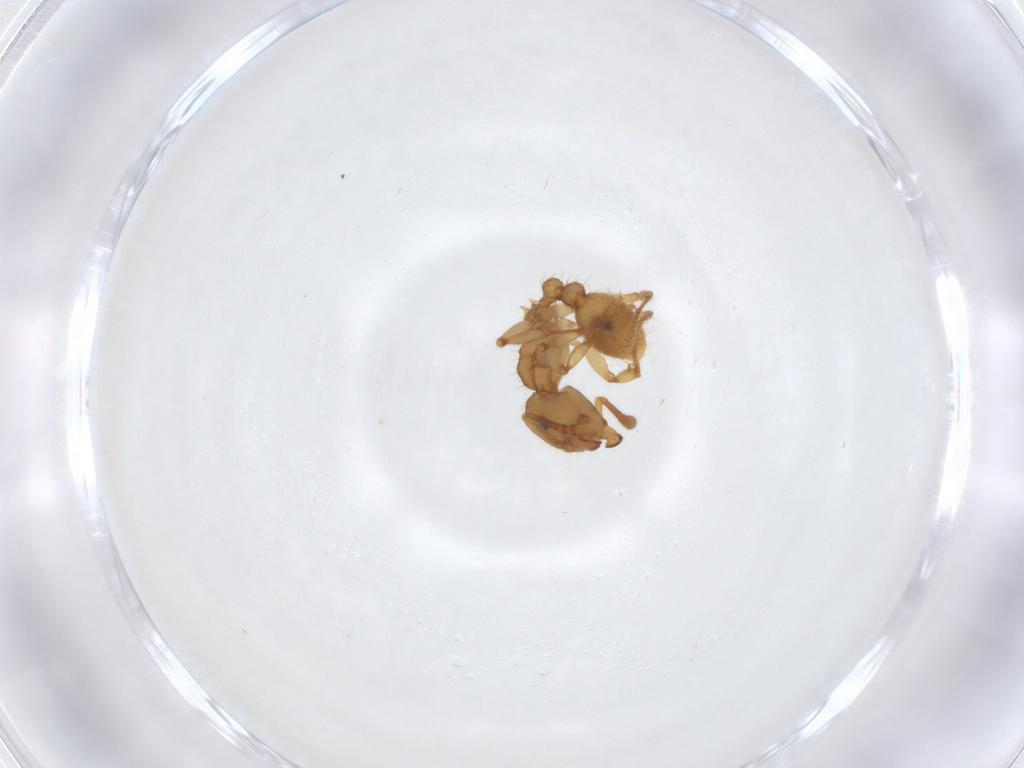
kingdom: Animalia
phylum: Arthropoda
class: Insecta
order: Hymenoptera
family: Formicidae
